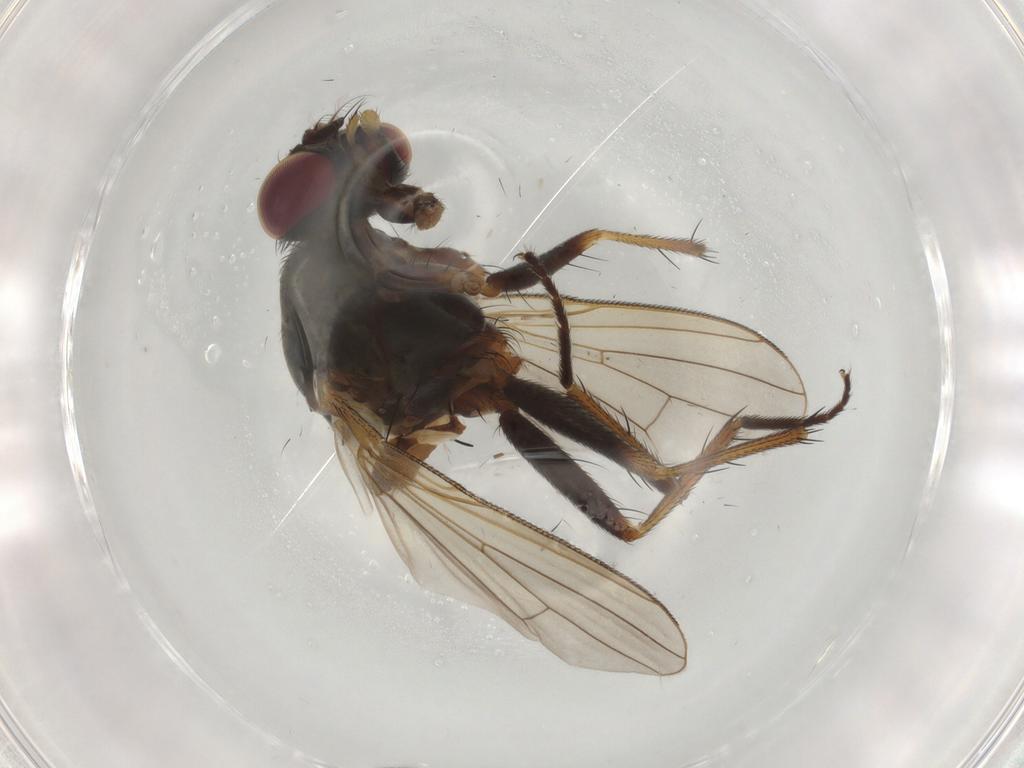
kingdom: Animalia
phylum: Arthropoda
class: Insecta
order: Diptera
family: Muscidae
